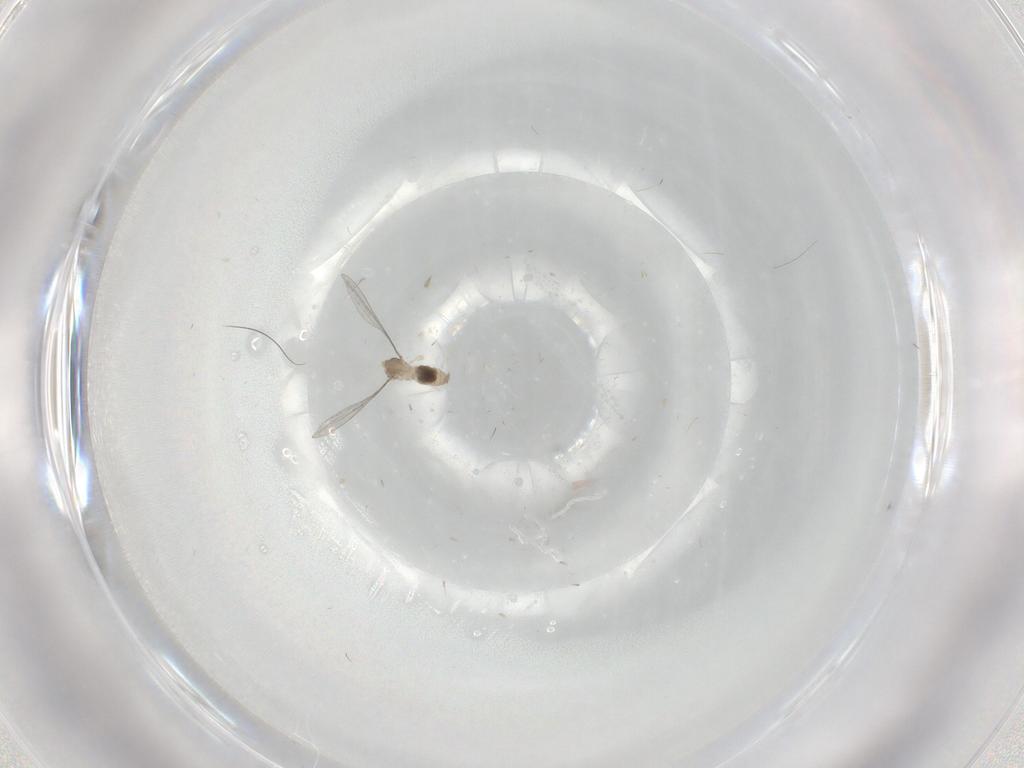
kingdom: Animalia
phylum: Arthropoda
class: Insecta
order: Diptera
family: Cecidomyiidae
